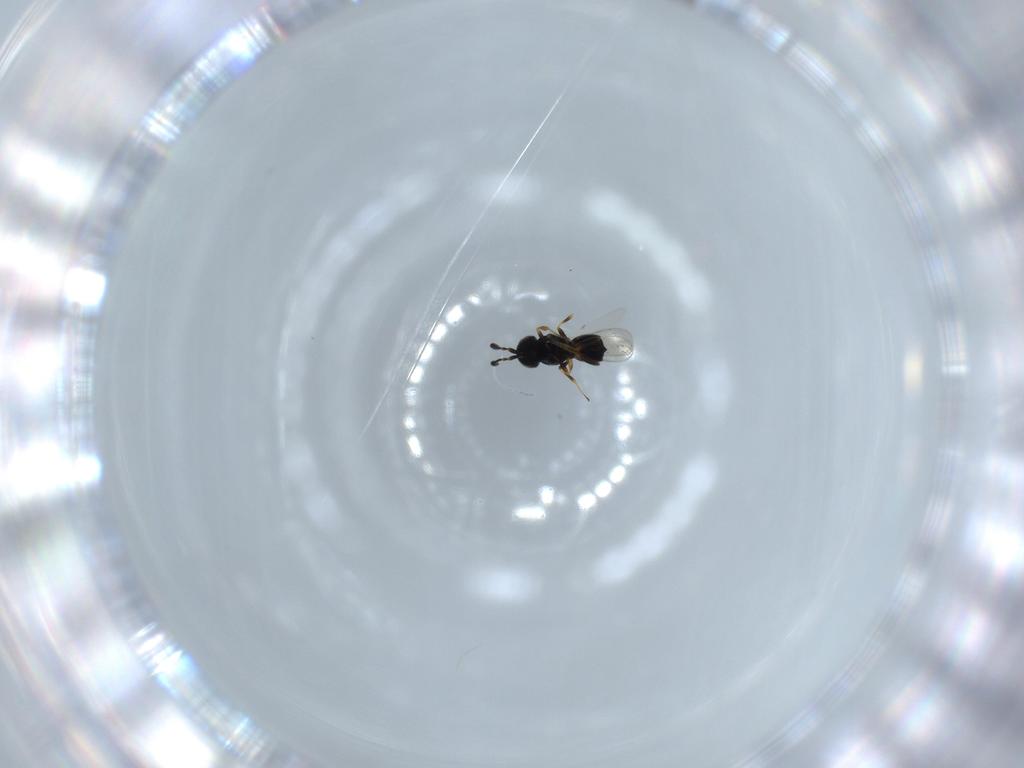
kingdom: Animalia
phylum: Arthropoda
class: Insecta
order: Hymenoptera
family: Scelionidae
